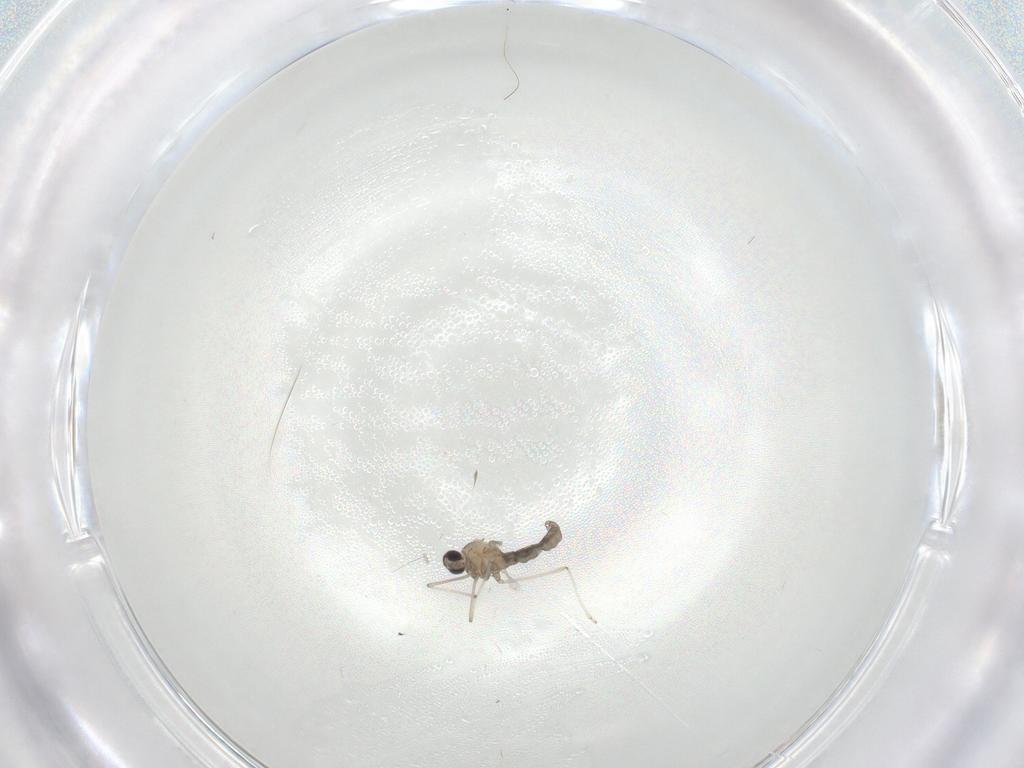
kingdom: Animalia
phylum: Arthropoda
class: Insecta
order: Diptera
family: Cecidomyiidae
